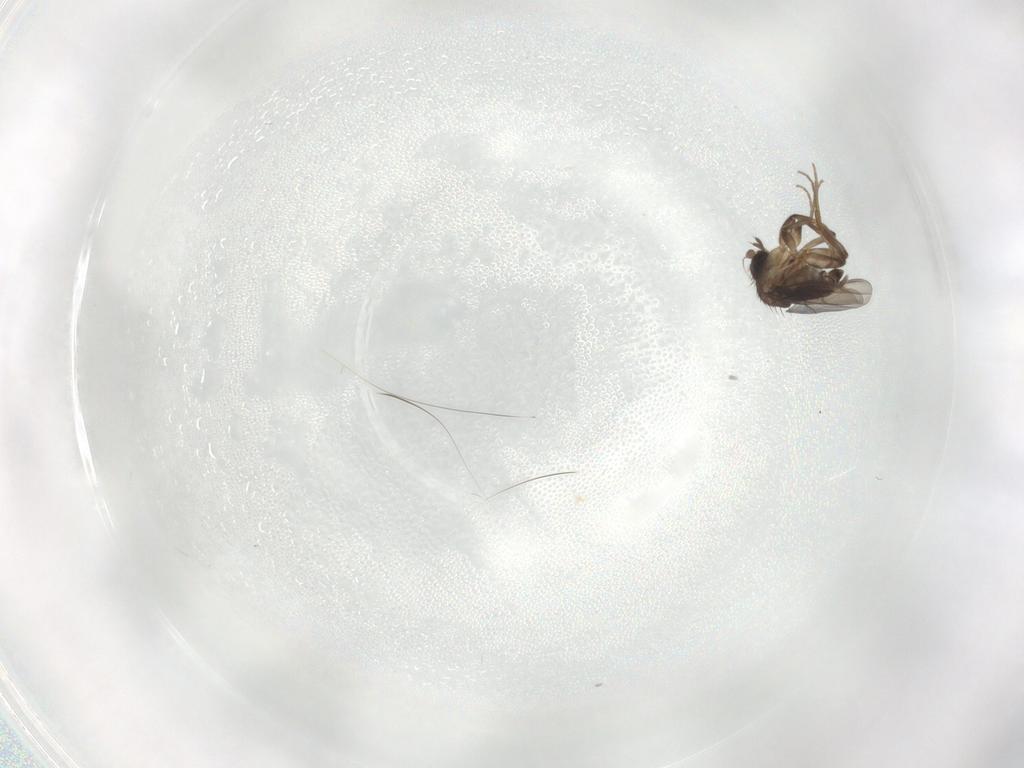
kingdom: Animalia
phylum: Arthropoda
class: Insecta
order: Diptera
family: Phoridae
